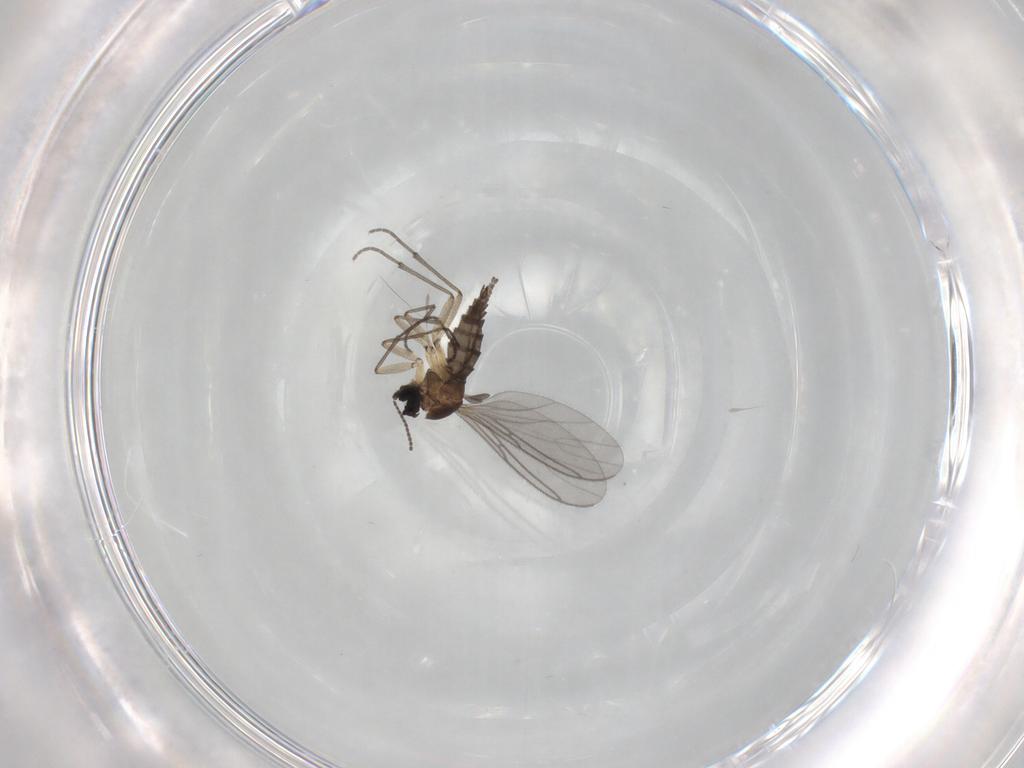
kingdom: Animalia
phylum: Arthropoda
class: Insecta
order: Diptera
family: Sciaridae
